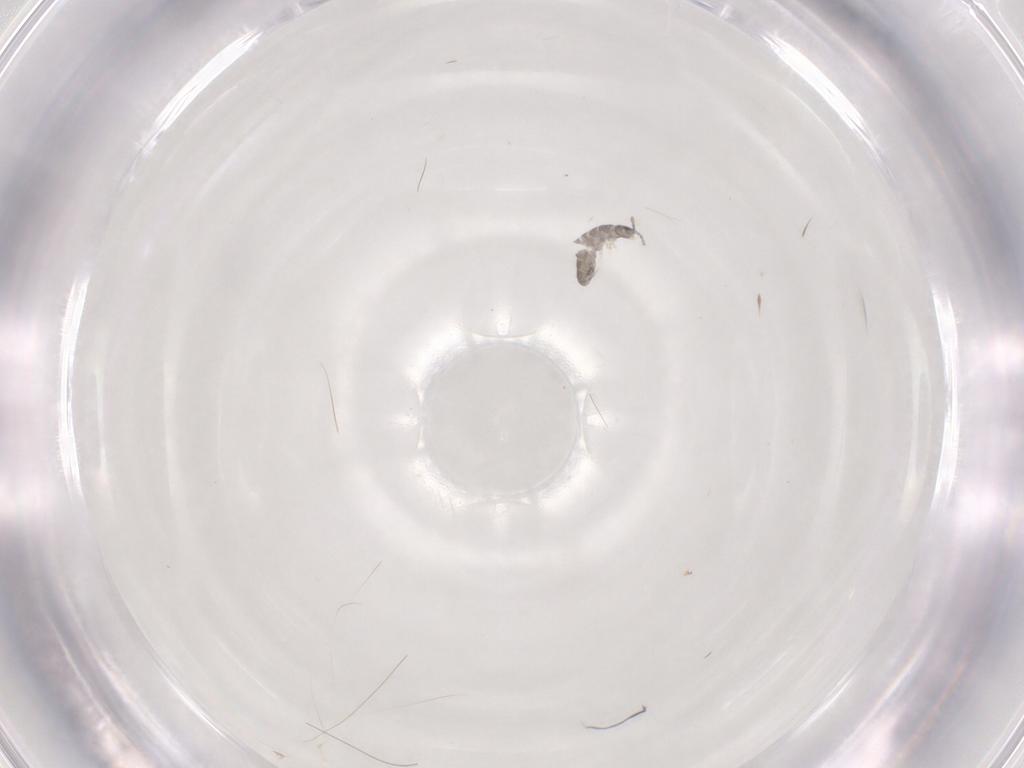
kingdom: Animalia
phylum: Arthropoda
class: Collembola
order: Entomobryomorpha
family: Isotomidae
